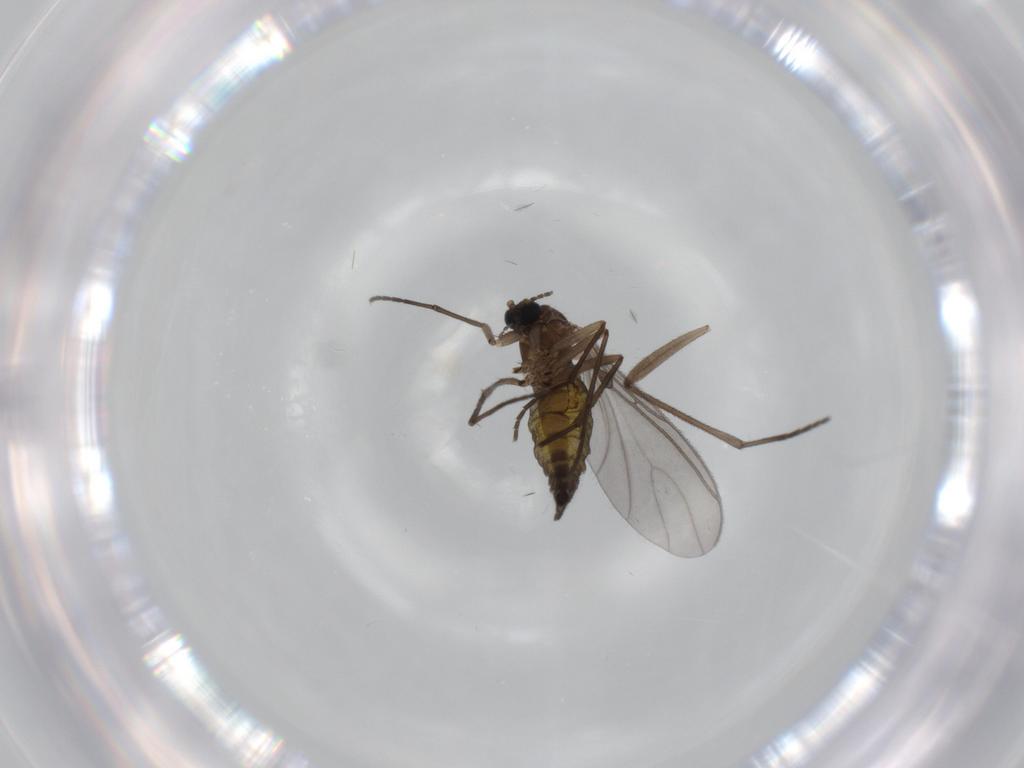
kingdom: Animalia
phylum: Arthropoda
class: Insecta
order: Diptera
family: Sciaridae
